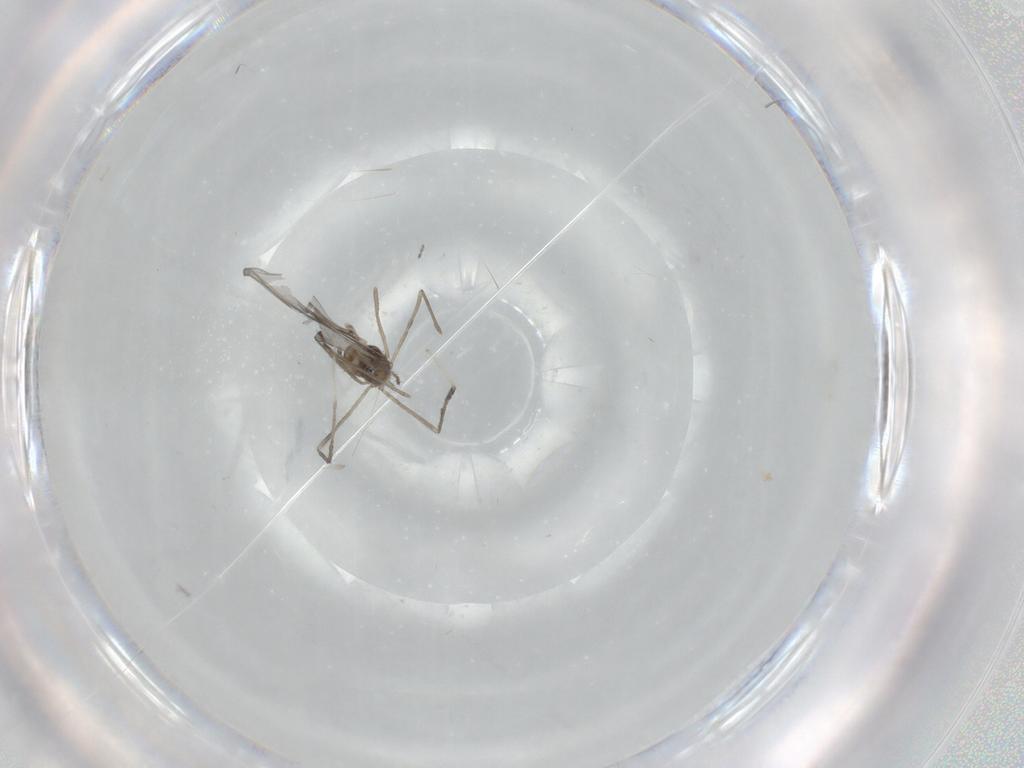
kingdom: Animalia
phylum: Arthropoda
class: Insecta
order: Diptera
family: Cecidomyiidae
